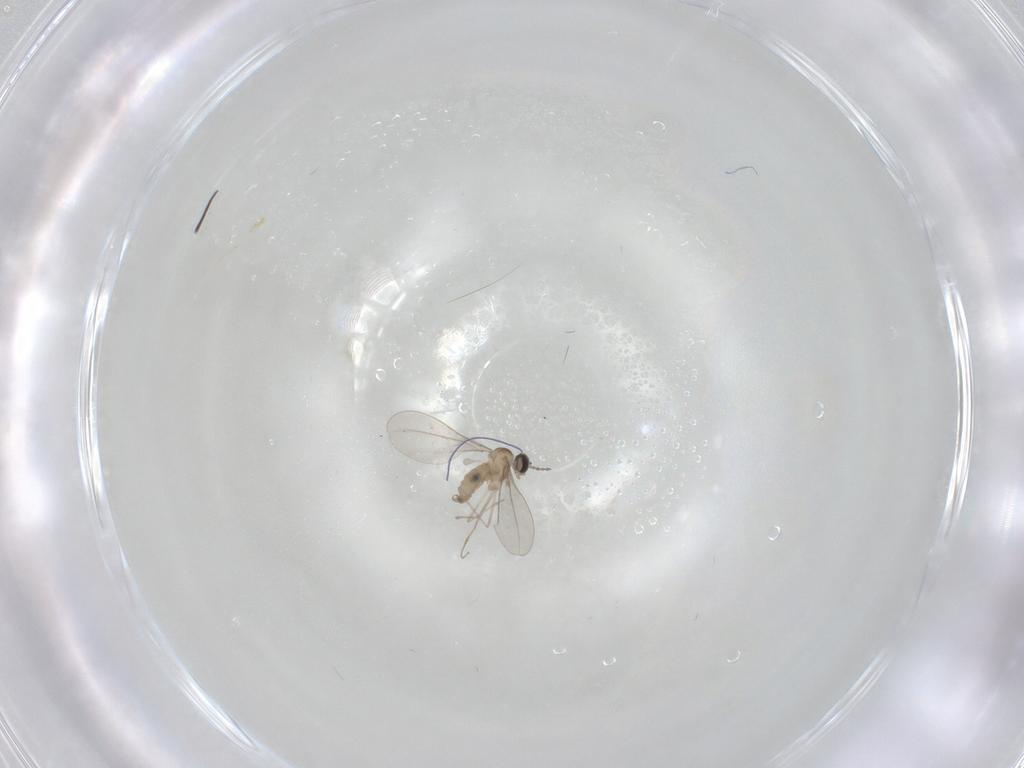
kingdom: Animalia
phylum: Arthropoda
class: Insecta
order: Diptera
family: Cecidomyiidae
